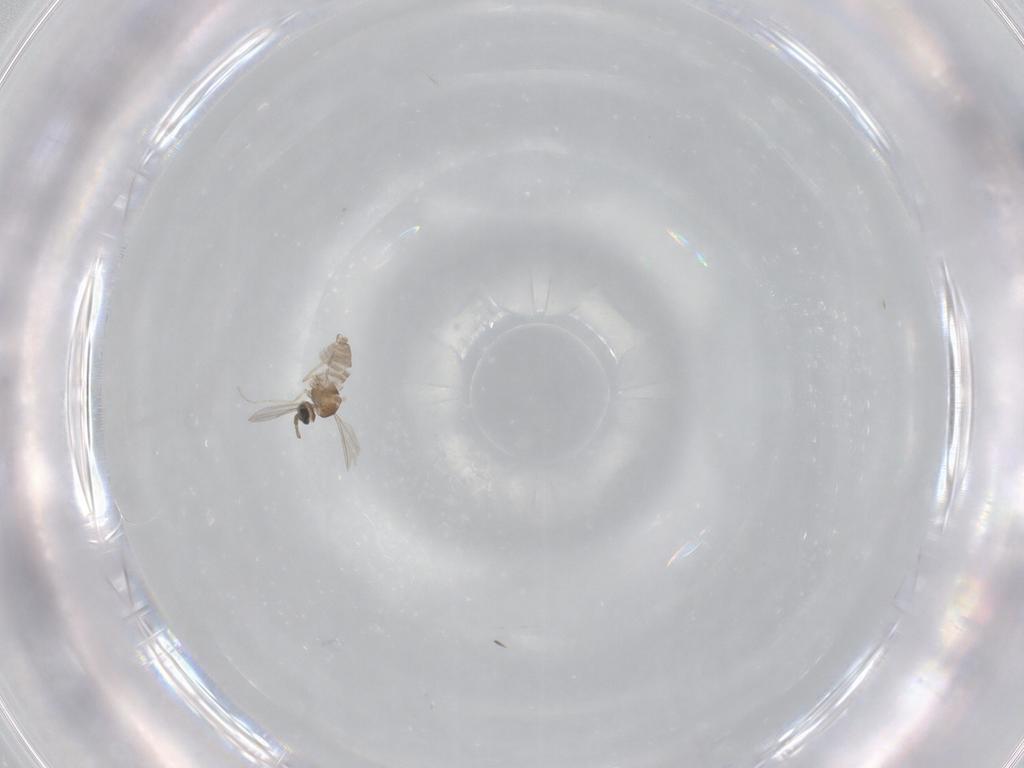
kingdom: Animalia
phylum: Arthropoda
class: Insecta
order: Diptera
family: Cecidomyiidae
